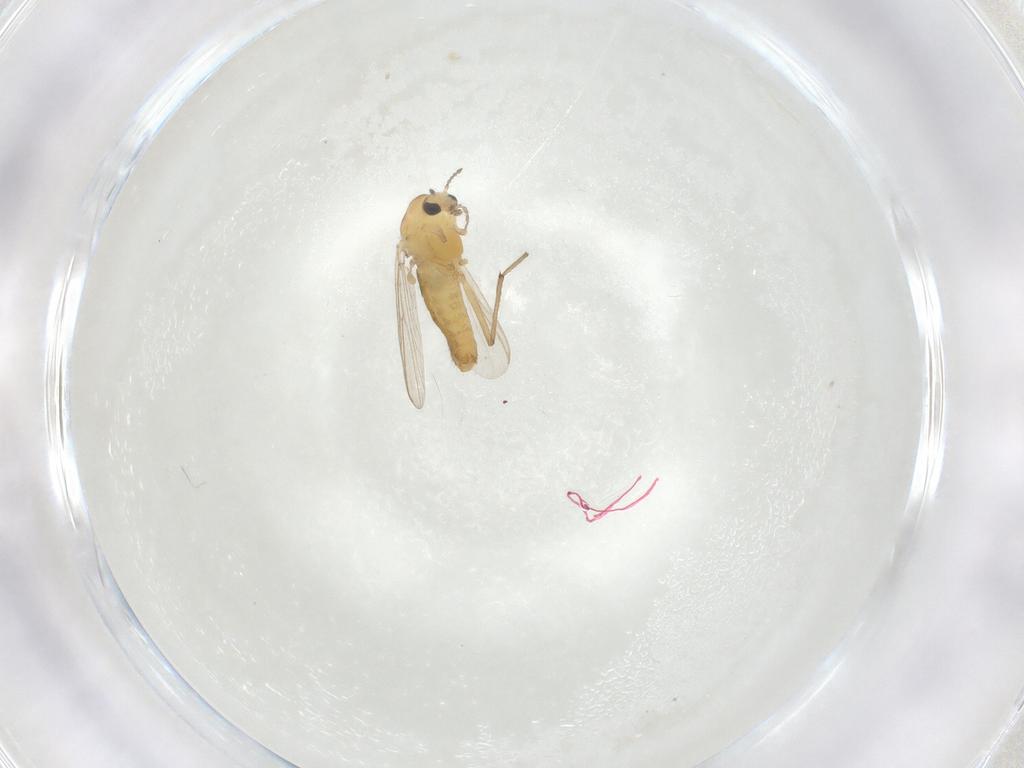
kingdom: Animalia
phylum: Arthropoda
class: Insecta
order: Diptera
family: Chironomidae
